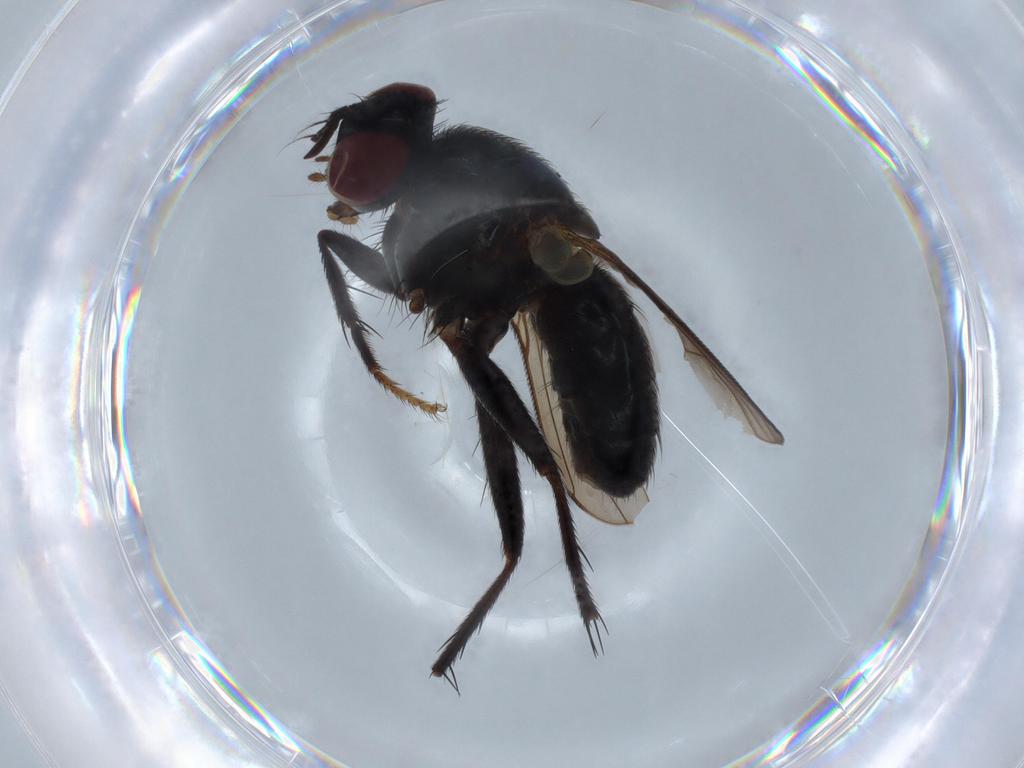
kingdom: Animalia
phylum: Arthropoda
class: Insecta
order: Diptera
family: Muscidae
